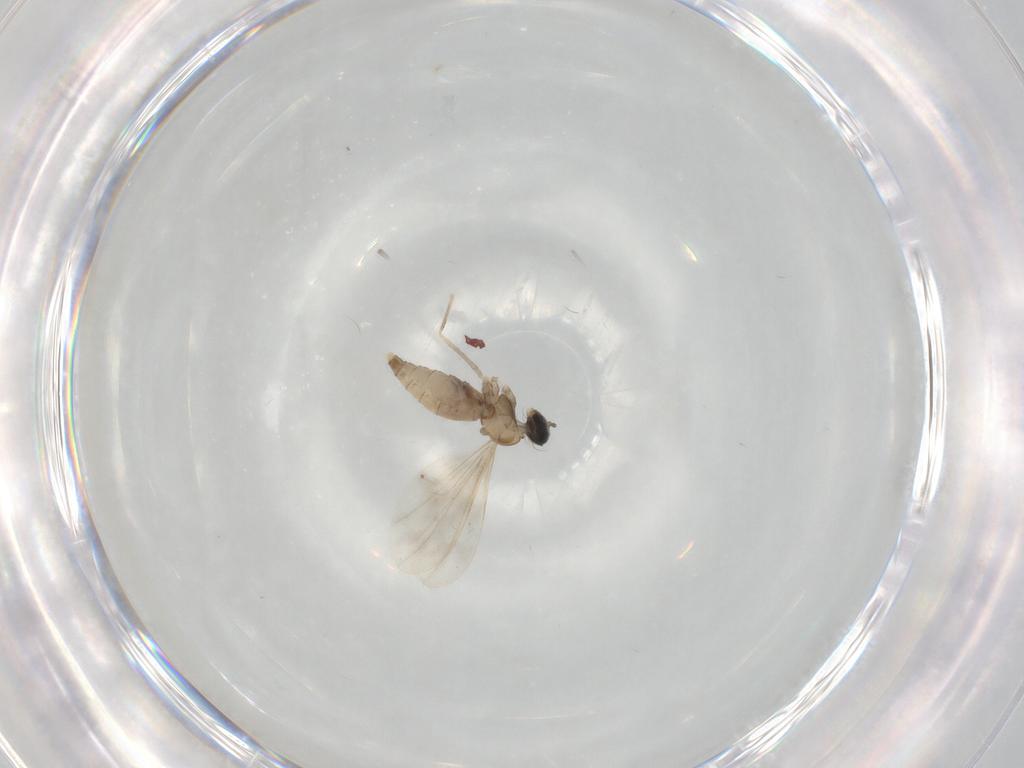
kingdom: Animalia
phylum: Arthropoda
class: Insecta
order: Diptera
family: Cecidomyiidae
